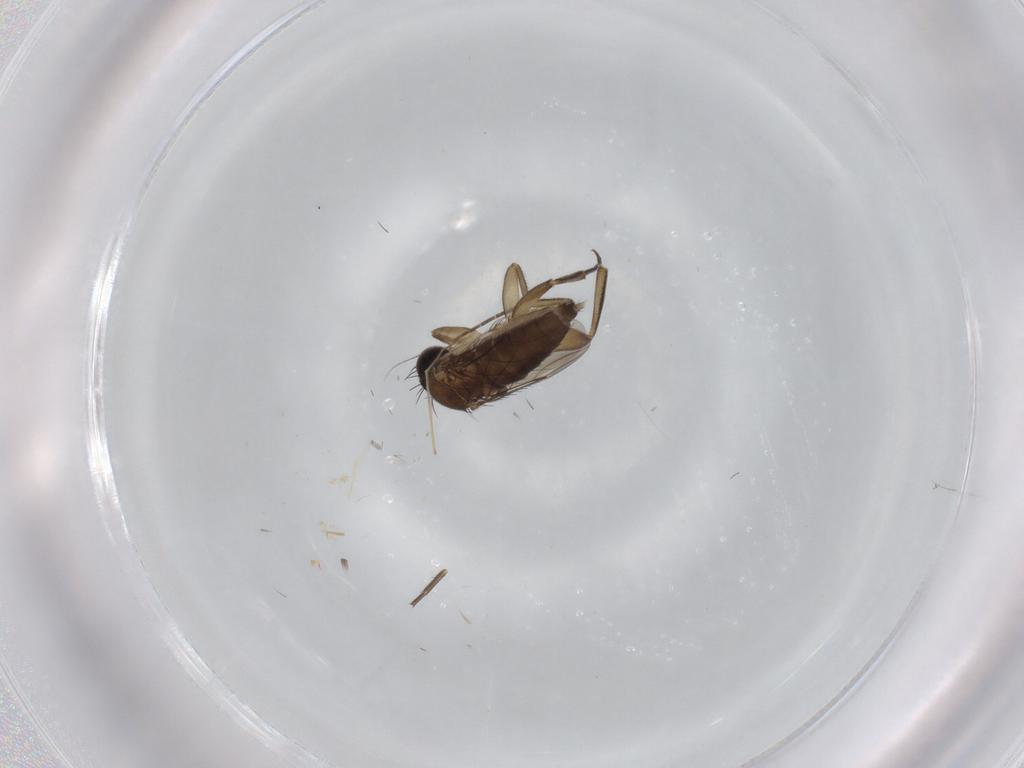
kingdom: Animalia
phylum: Arthropoda
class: Insecta
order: Diptera
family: Phoridae
